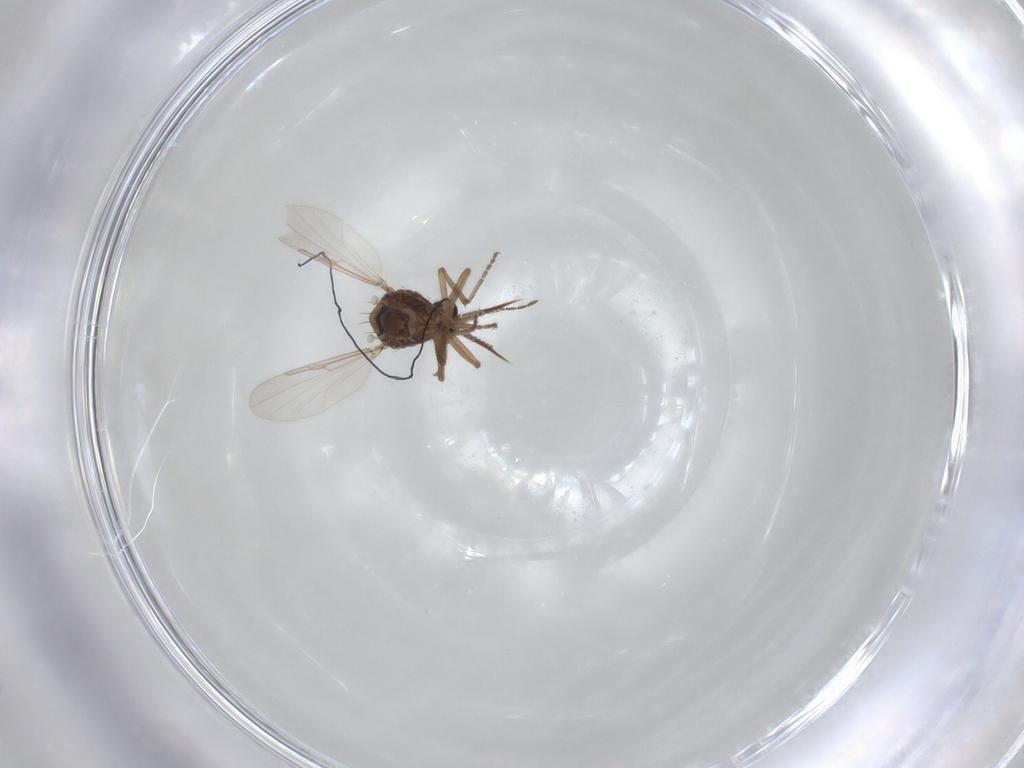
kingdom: Animalia
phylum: Arthropoda
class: Insecta
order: Diptera
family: Ceratopogonidae
